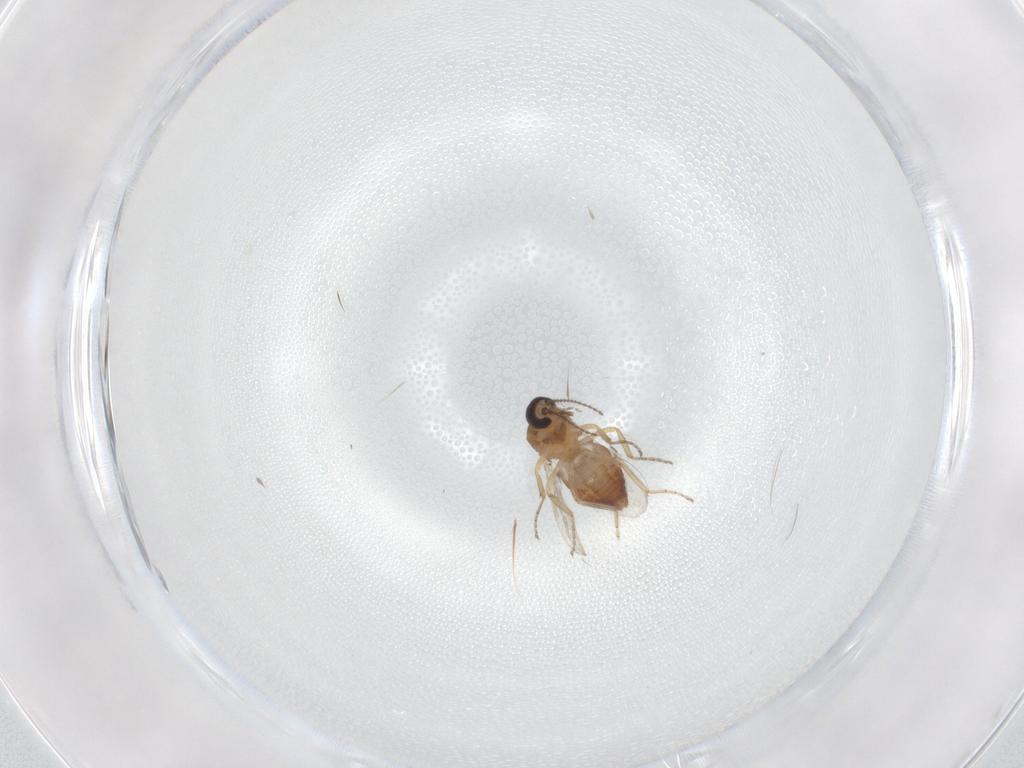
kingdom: Animalia
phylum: Arthropoda
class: Insecta
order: Diptera
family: Ceratopogonidae
